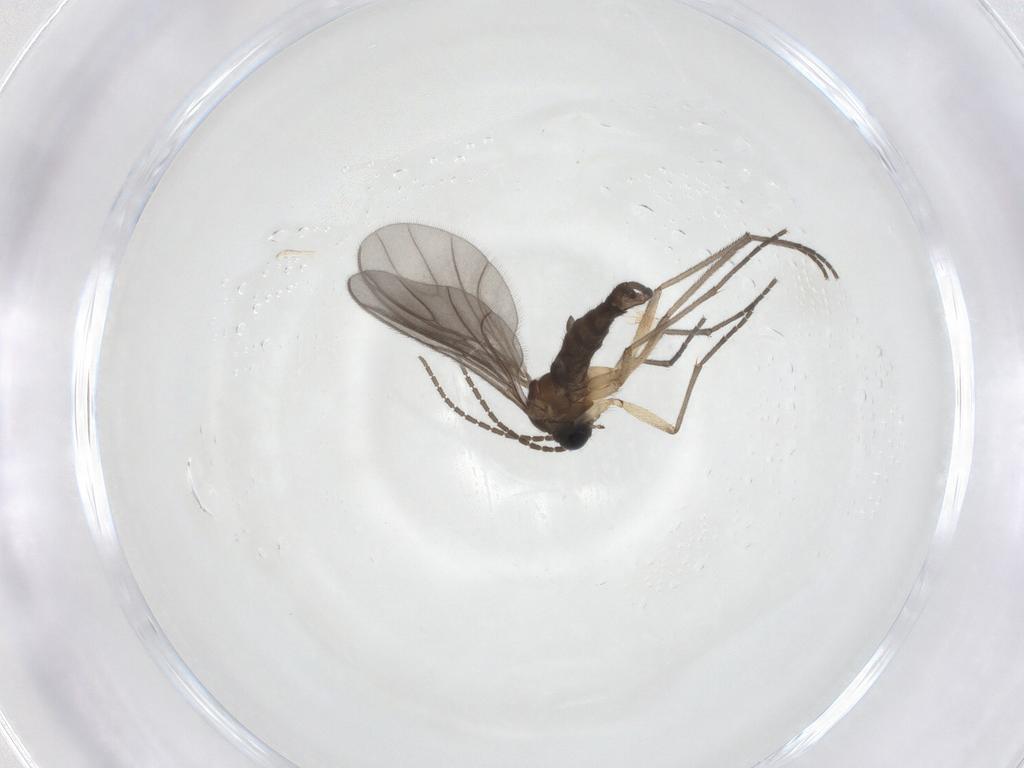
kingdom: Animalia
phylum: Arthropoda
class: Insecta
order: Diptera
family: Sciaridae
